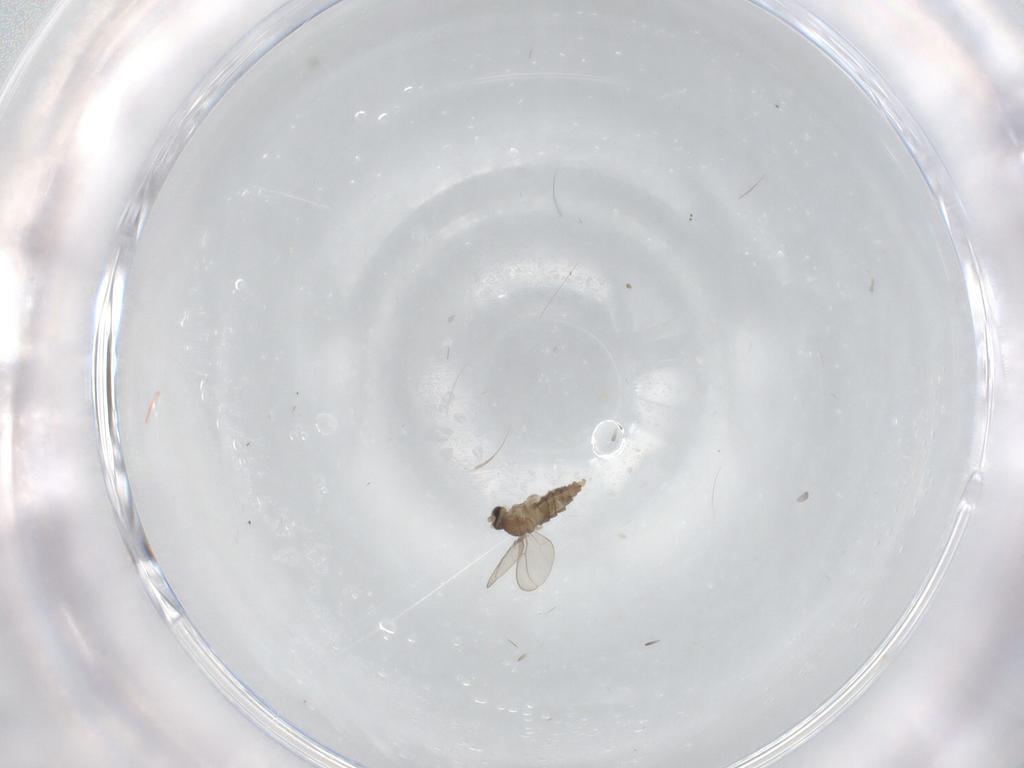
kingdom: Animalia
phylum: Arthropoda
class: Insecta
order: Diptera
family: Cecidomyiidae
